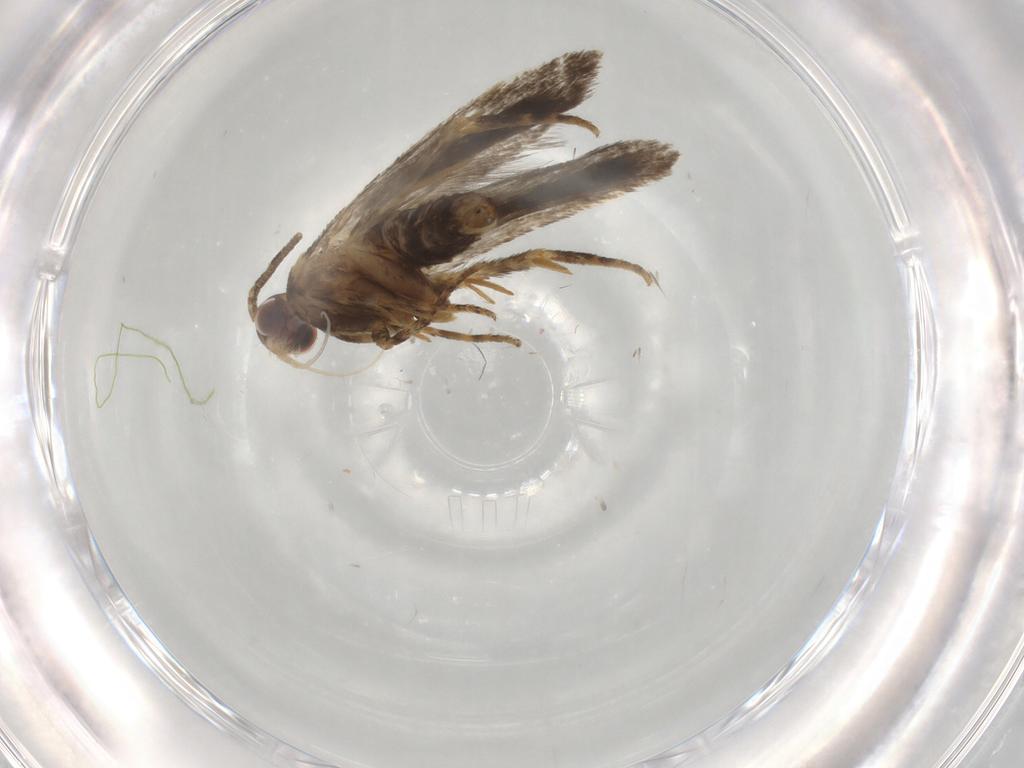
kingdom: Animalia
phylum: Arthropoda
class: Insecta
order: Lepidoptera
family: Autostichidae
